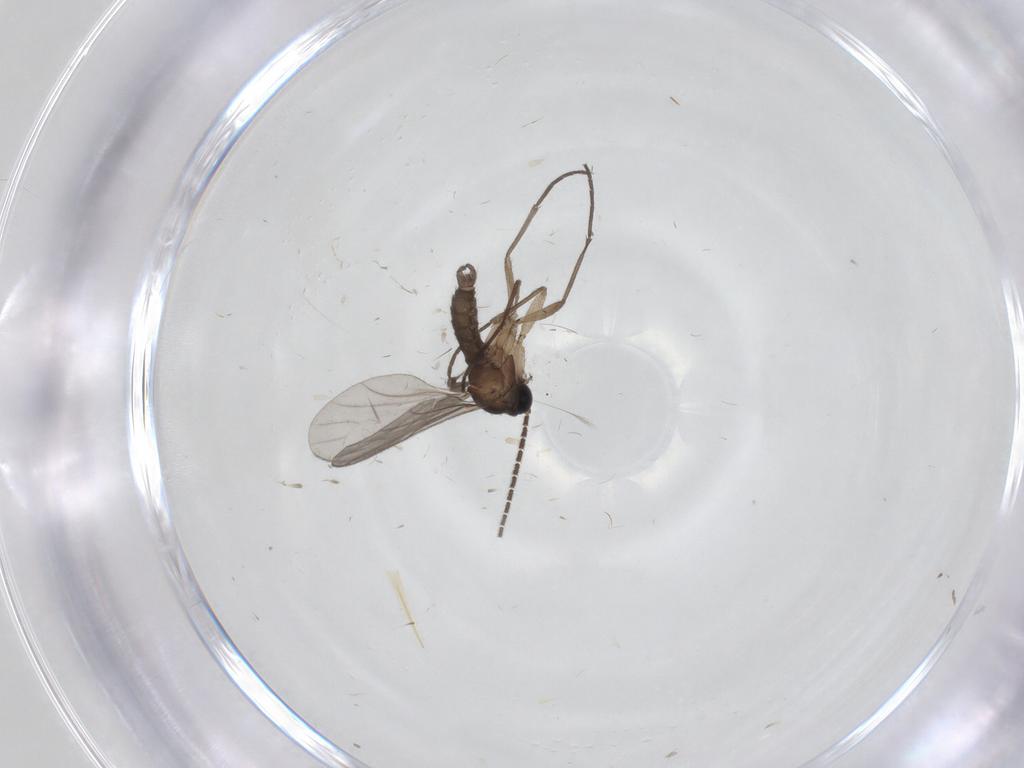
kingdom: Animalia
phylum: Arthropoda
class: Insecta
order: Diptera
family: Sciaridae
